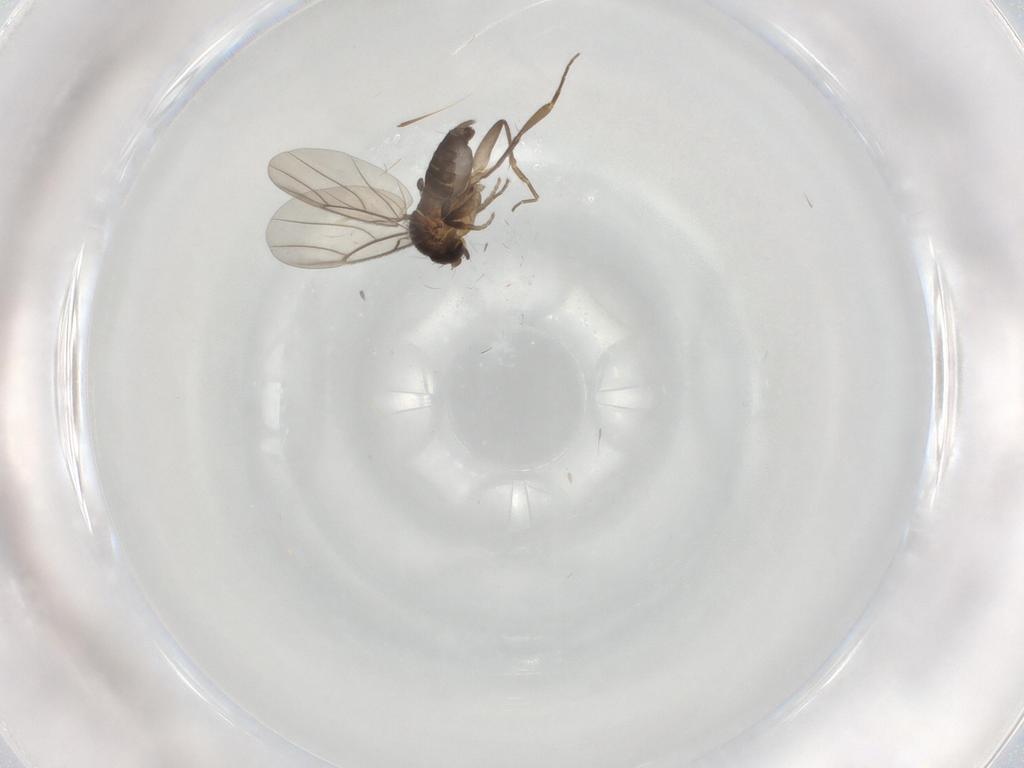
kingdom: Animalia
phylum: Arthropoda
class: Insecta
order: Diptera
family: Phoridae
